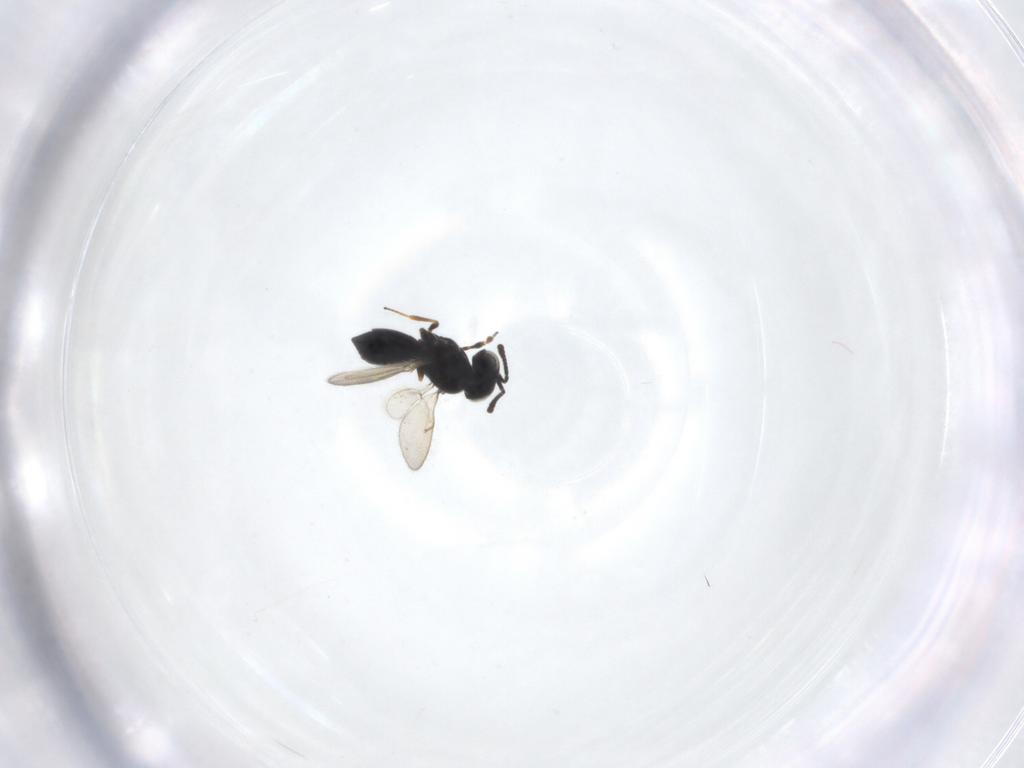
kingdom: Animalia
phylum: Arthropoda
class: Insecta
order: Hymenoptera
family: Scelionidae
